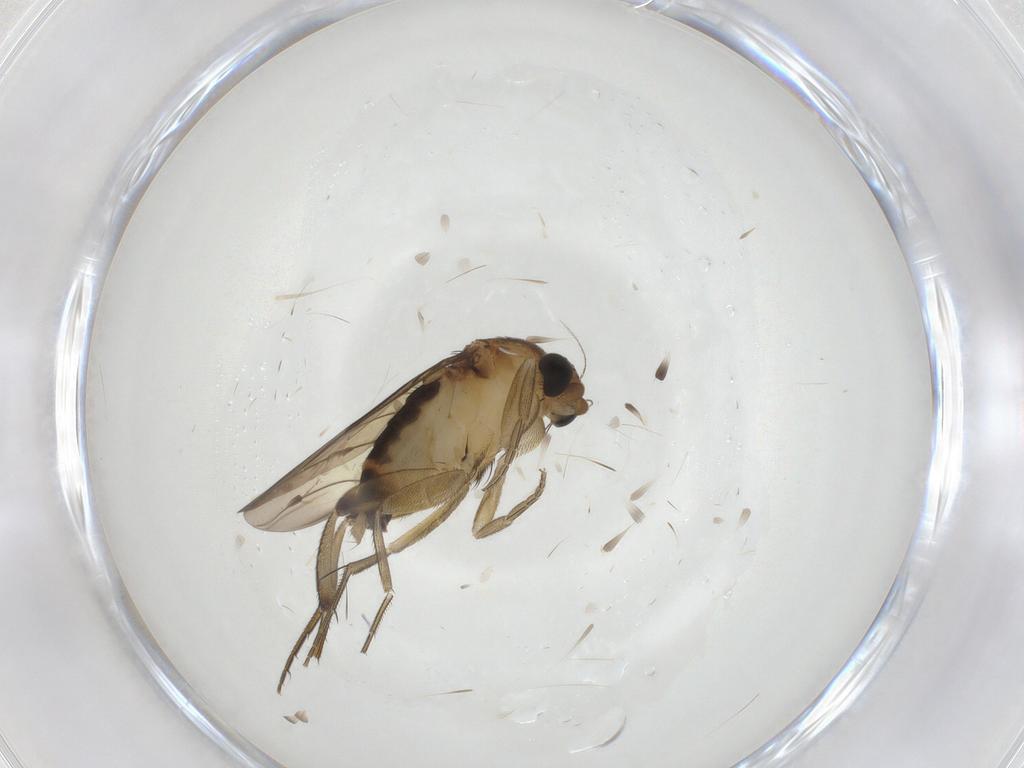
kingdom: Animalia
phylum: Arthropoda
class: Insecta
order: Diptera
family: Phoridae
